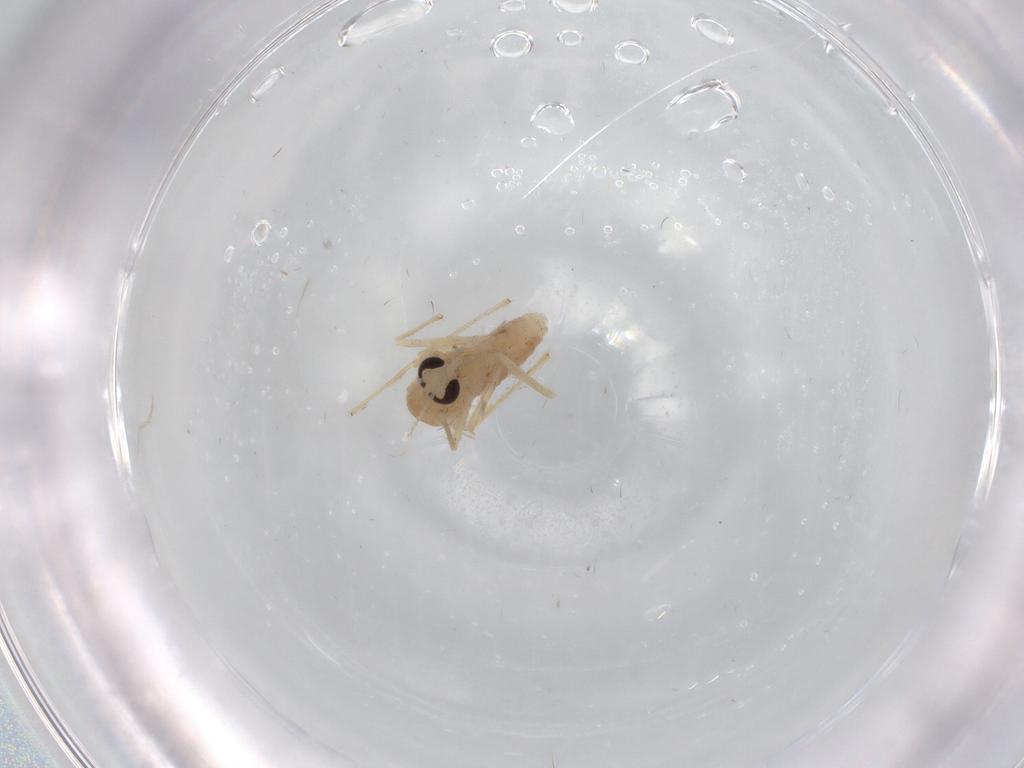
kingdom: Animalia
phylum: Arthropoda
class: Insecta
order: Diptera
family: Chironomidae
